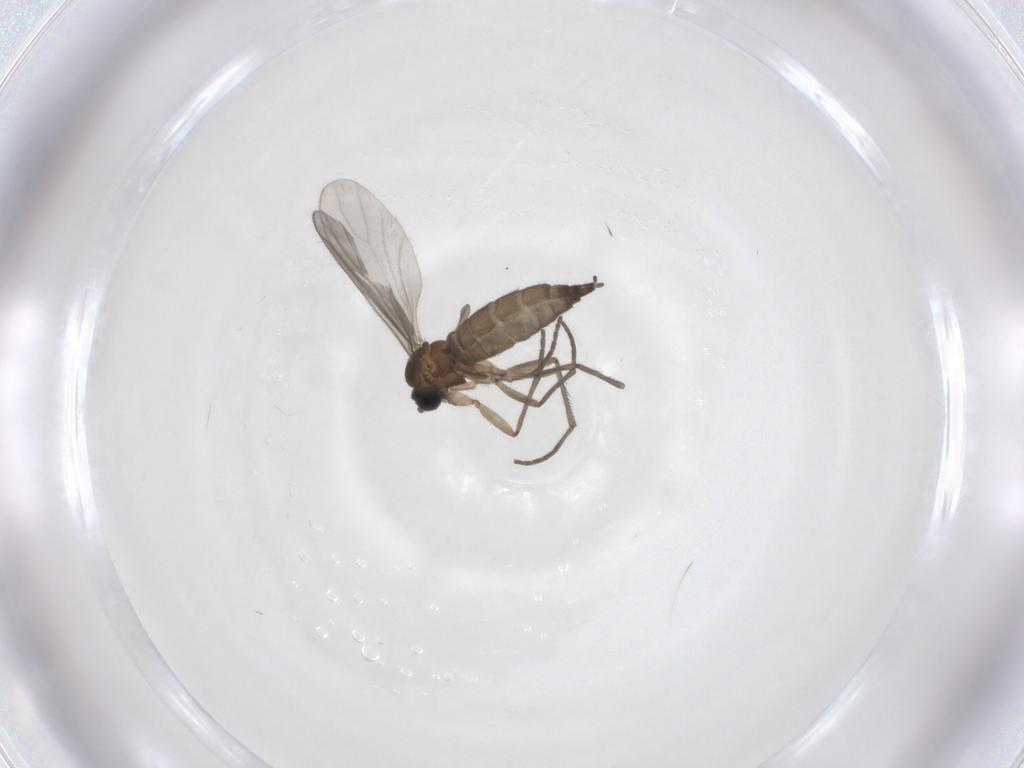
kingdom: Animalia
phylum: Arthropoda
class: Insecta
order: Diptera
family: Sciaridae
